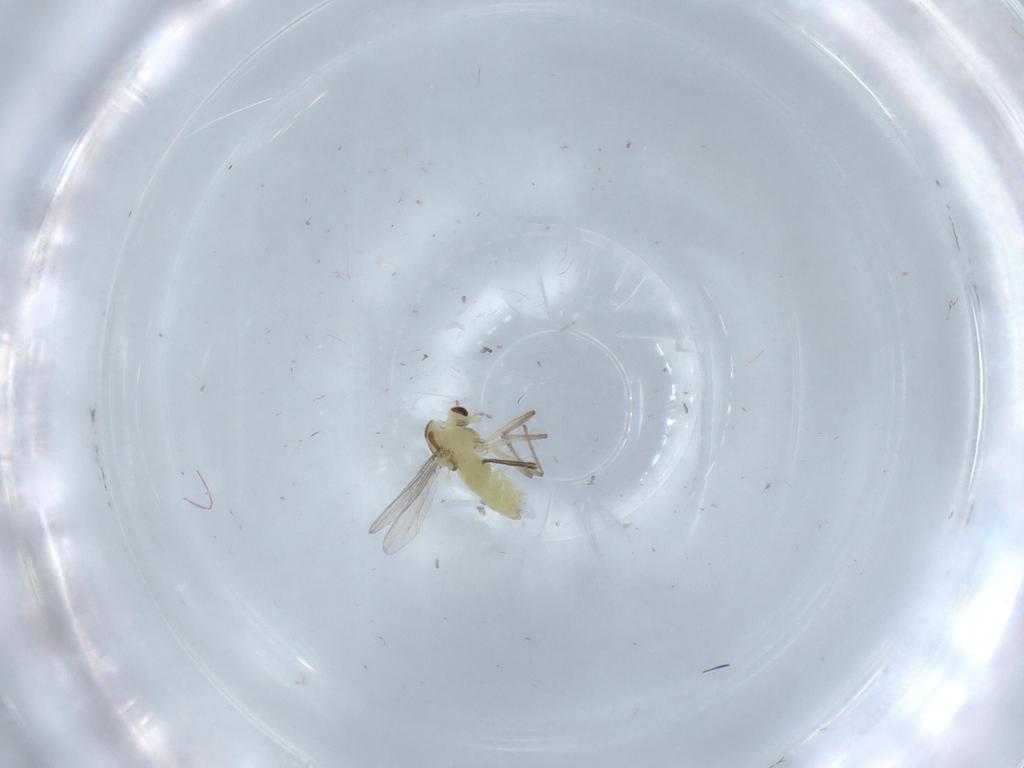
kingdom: Animalia
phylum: Arthropoda
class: Insecta
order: Diptera
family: Chironomidae
